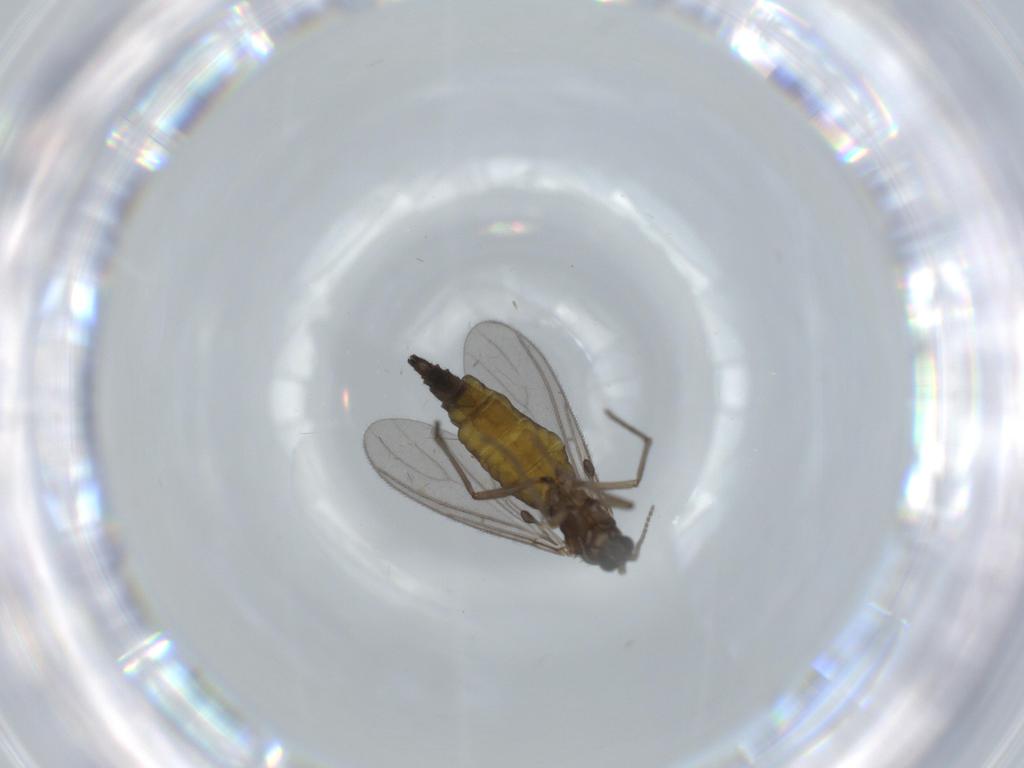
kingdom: Animalia
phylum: Arthropoda
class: Insecta
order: Diptera
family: Sciaridae
